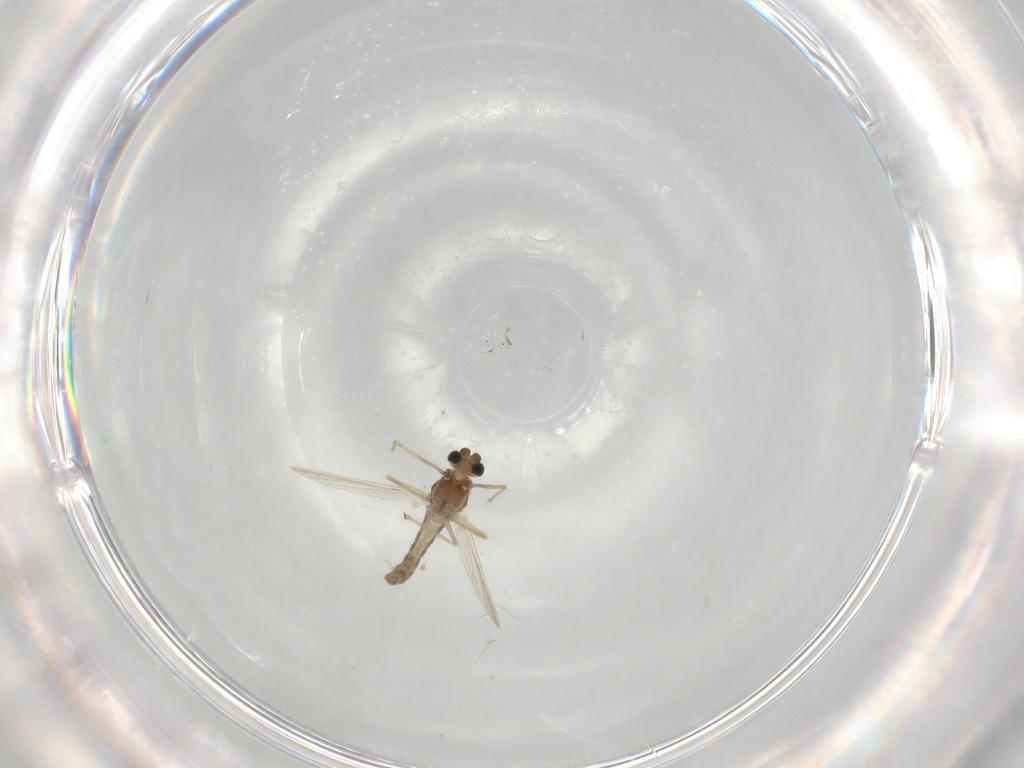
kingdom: Animalia
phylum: Arthropoda
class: Insecta
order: Diptera
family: Chironomidae
